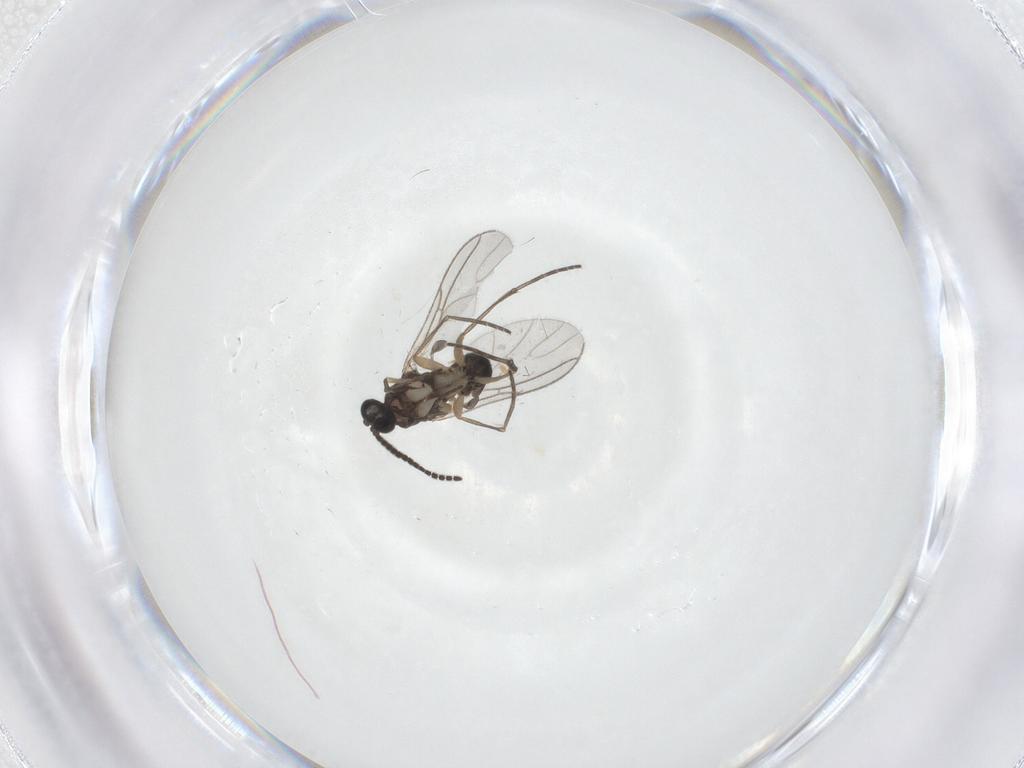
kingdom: Animalia
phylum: Arthropoda
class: Insecta
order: Diptera
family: Sciaridae
